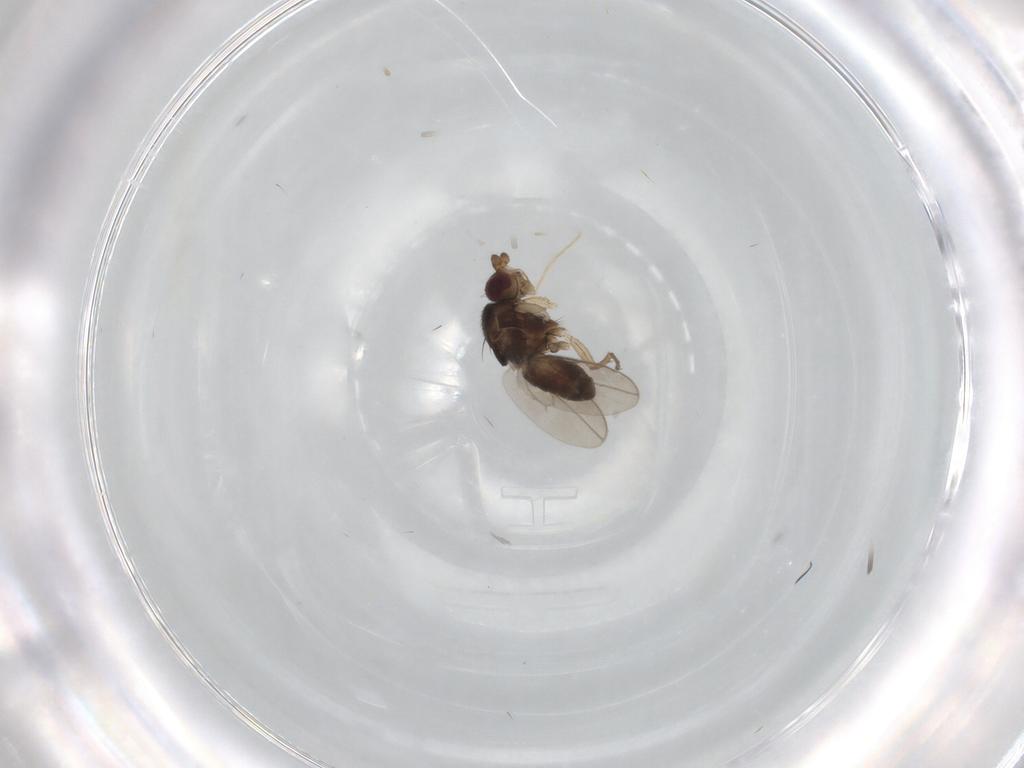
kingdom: Animalia
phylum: Arthropoda
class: Insecta
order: Diptera
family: Sphaeroceridae
